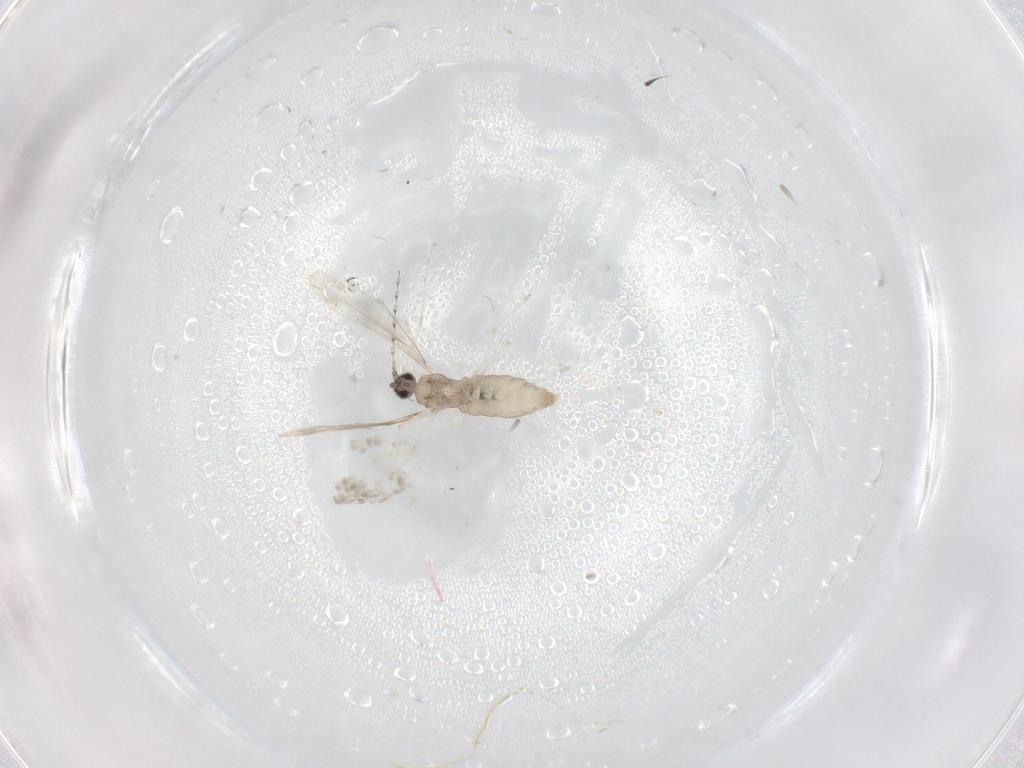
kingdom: Animalia
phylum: Arthropoda
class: Insecta
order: Diptera
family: Cecidomyiidae
